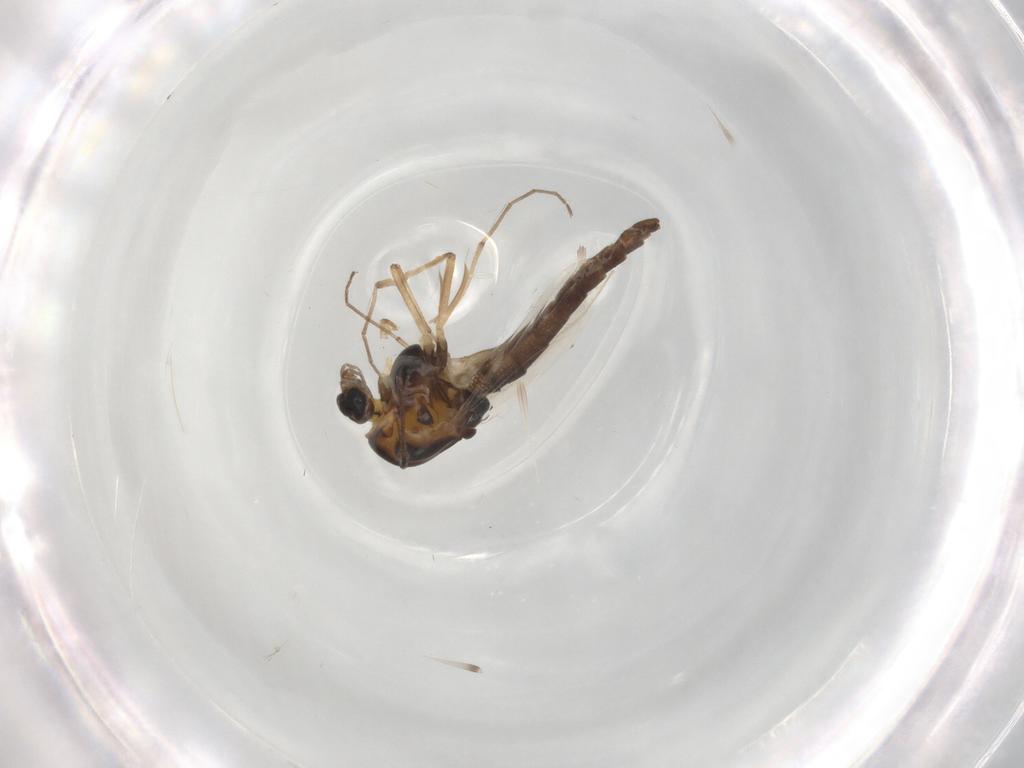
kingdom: Animalia
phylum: Arthropoda
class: Insecta
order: Diptera
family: Chironomidae
